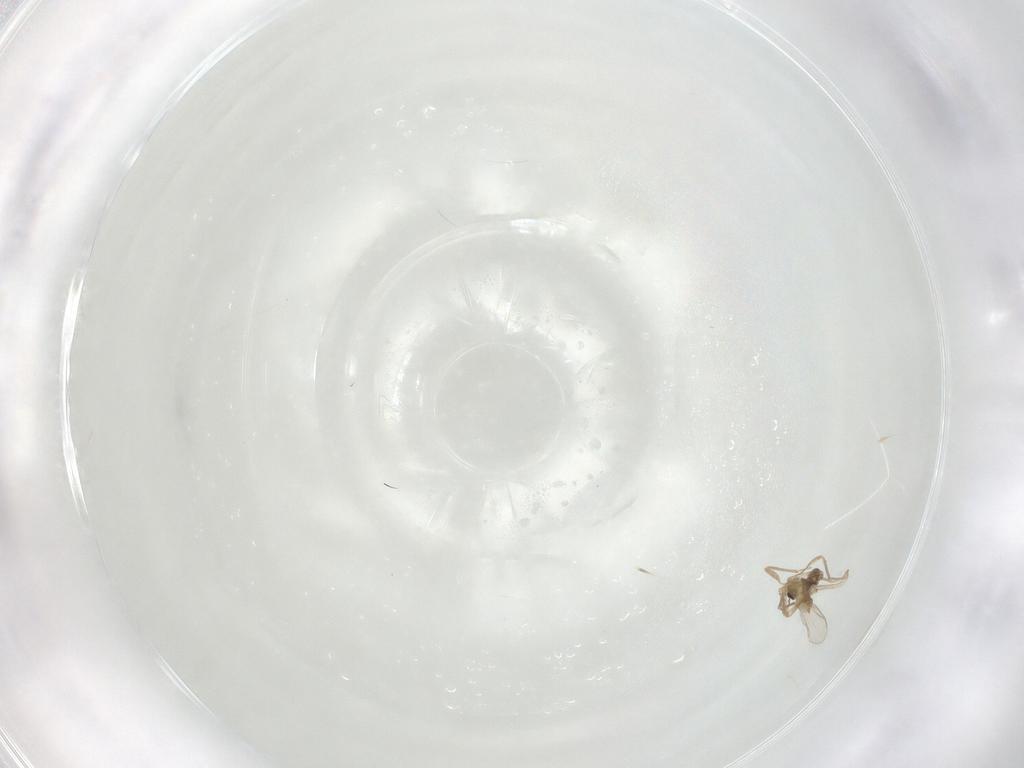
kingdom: Animalia
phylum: Arthropoda
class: Insecta
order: Diptera
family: Chironomidae
